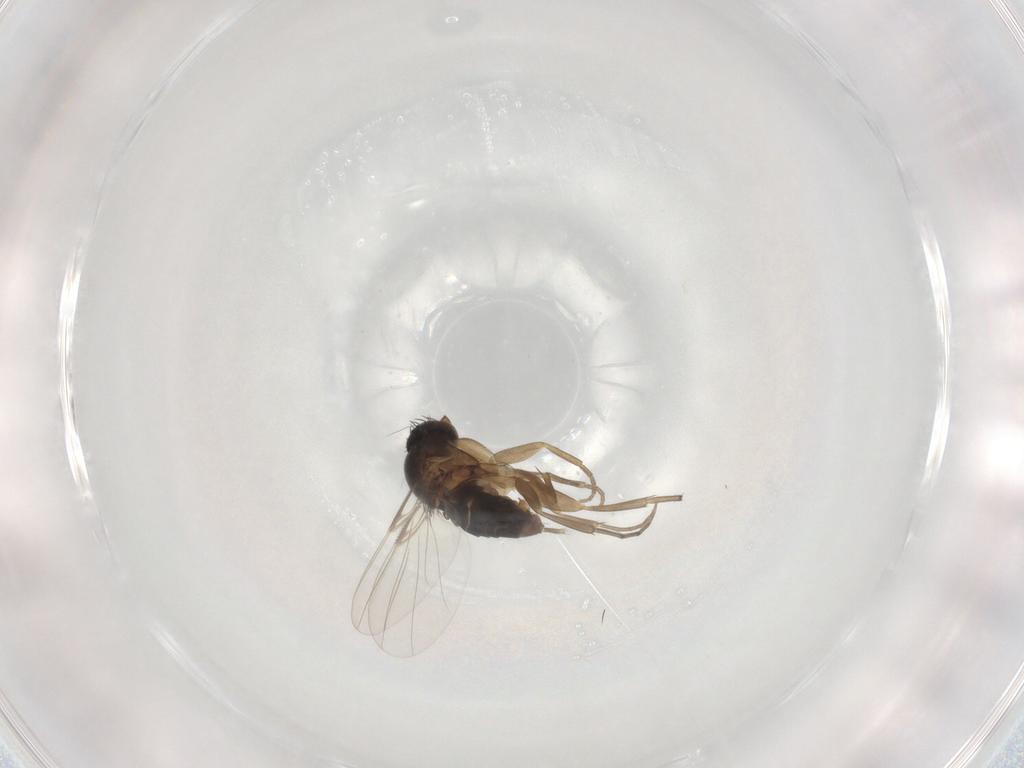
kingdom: Animalia
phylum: Arthropoda
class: Insecta
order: Diptera
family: Phoridae
